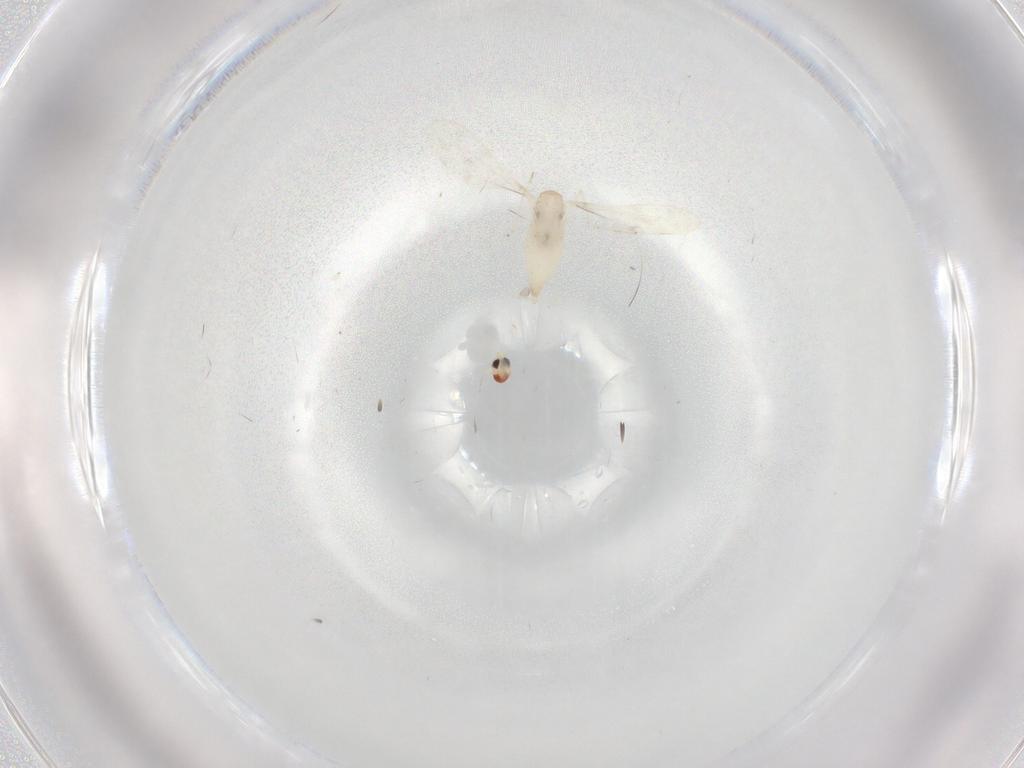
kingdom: Animalia
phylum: Arthropoda
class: Insecta
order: Diptera
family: Cecidomyiidae
